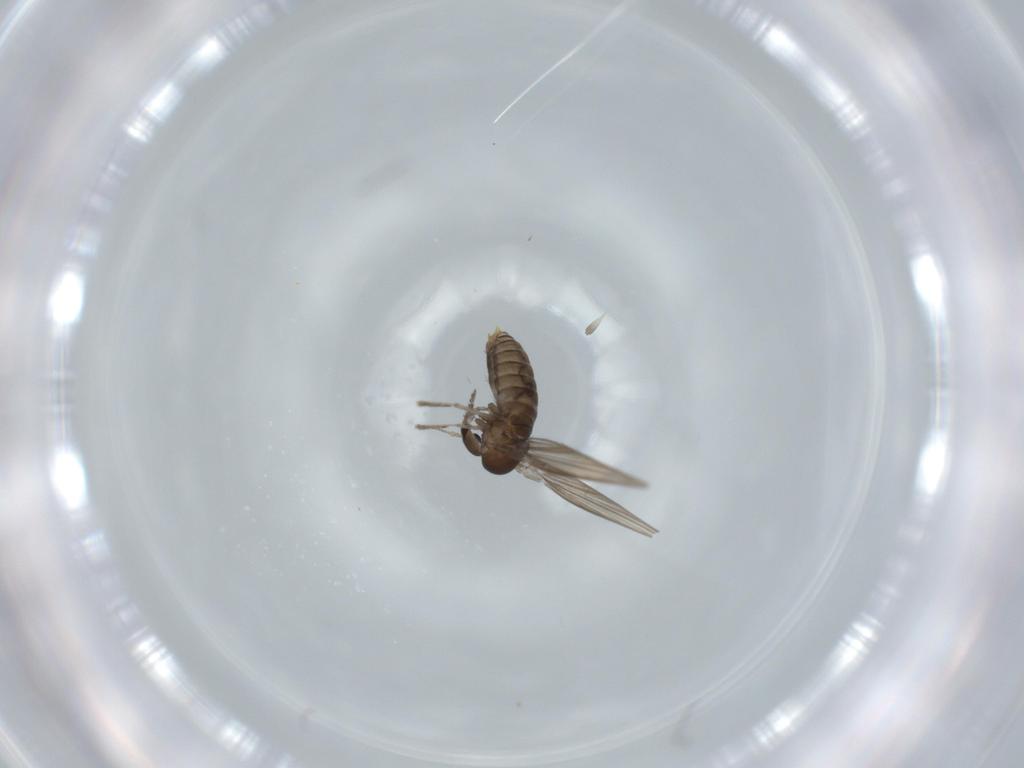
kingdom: Animalia
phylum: Arthropoda
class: Insecta
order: Diptera
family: Psychodidae
